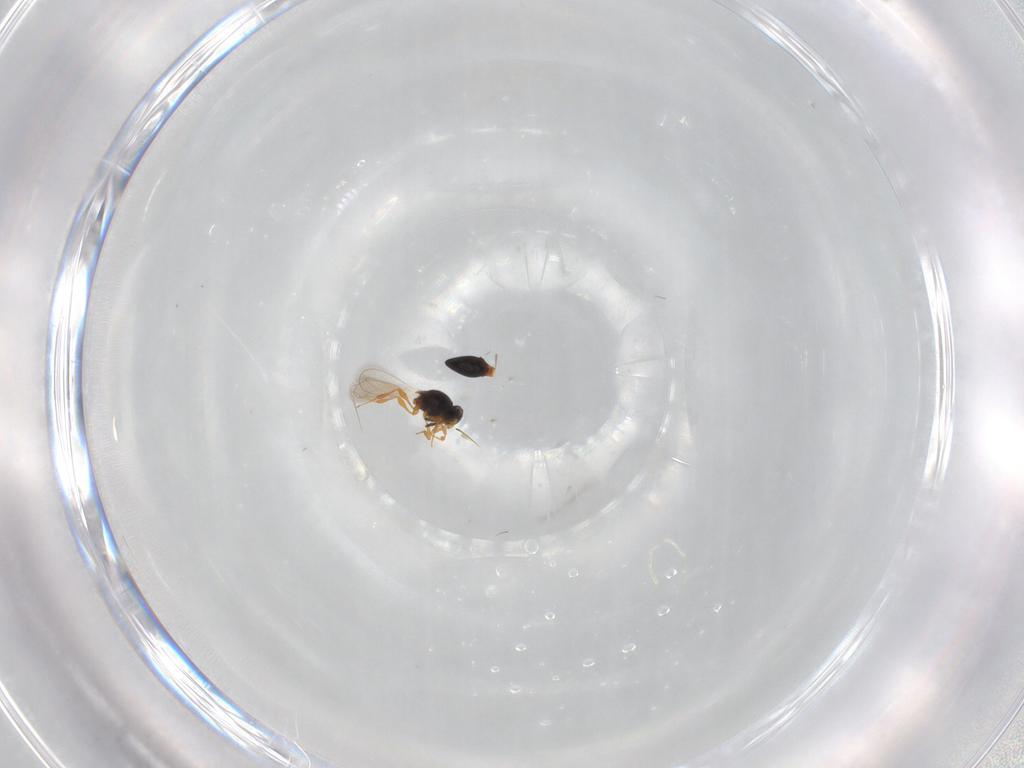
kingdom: Animalia
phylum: Arthropoda
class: Insecta
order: Hymenoptera
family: Platygastridae
